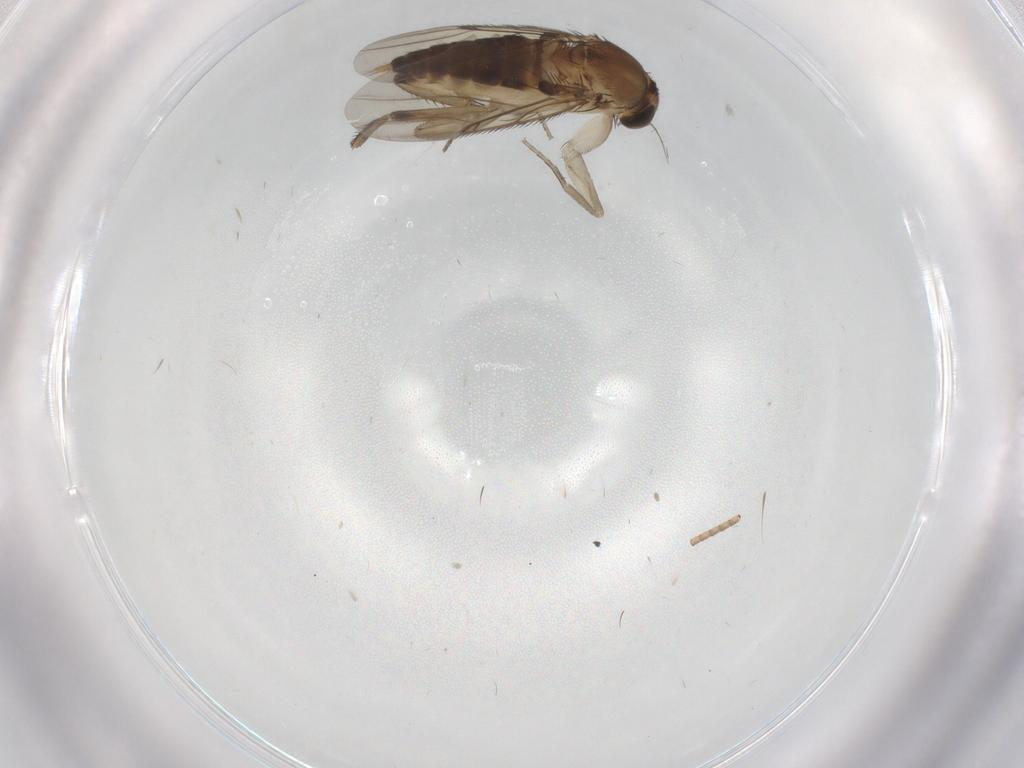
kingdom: Animalia
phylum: Arthropoda
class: Insecta
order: Diptera
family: Phoridae
